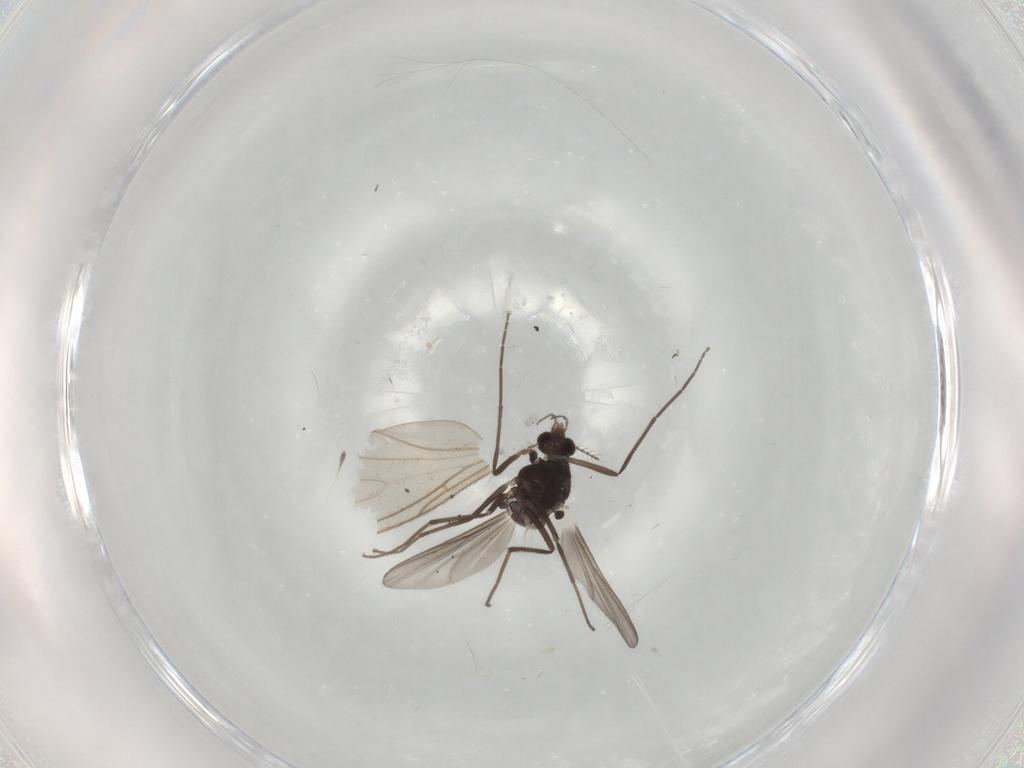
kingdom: Animalia
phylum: Arthropoda
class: Insecta
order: Diptera
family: Chironomidae
